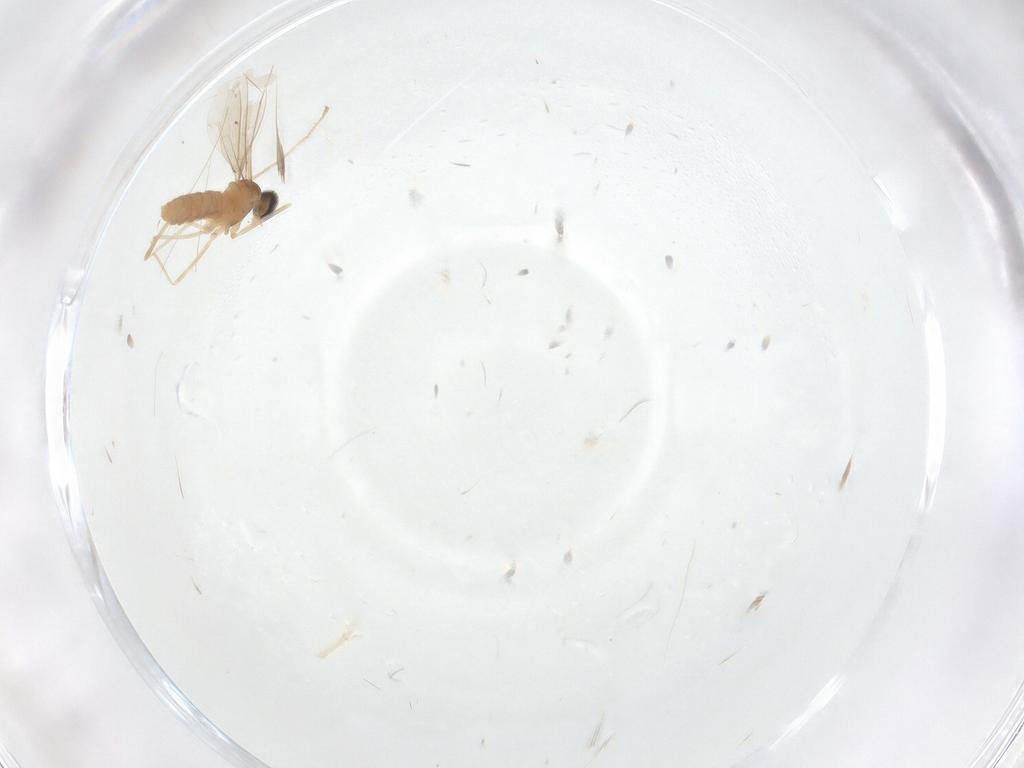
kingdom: Animalia
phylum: Arthropoda
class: Insecta
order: Diptera
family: Cecidomyiidae
